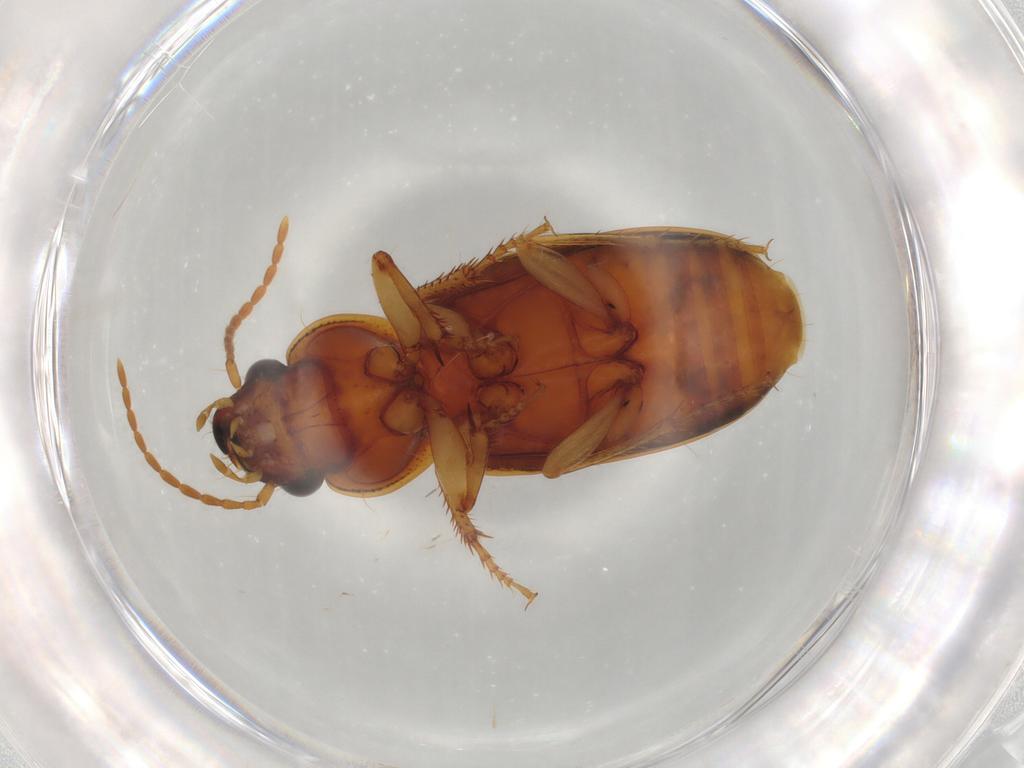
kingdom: Animalia
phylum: Arthropoda
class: Insecta
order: Coleoptera
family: Carabidae
